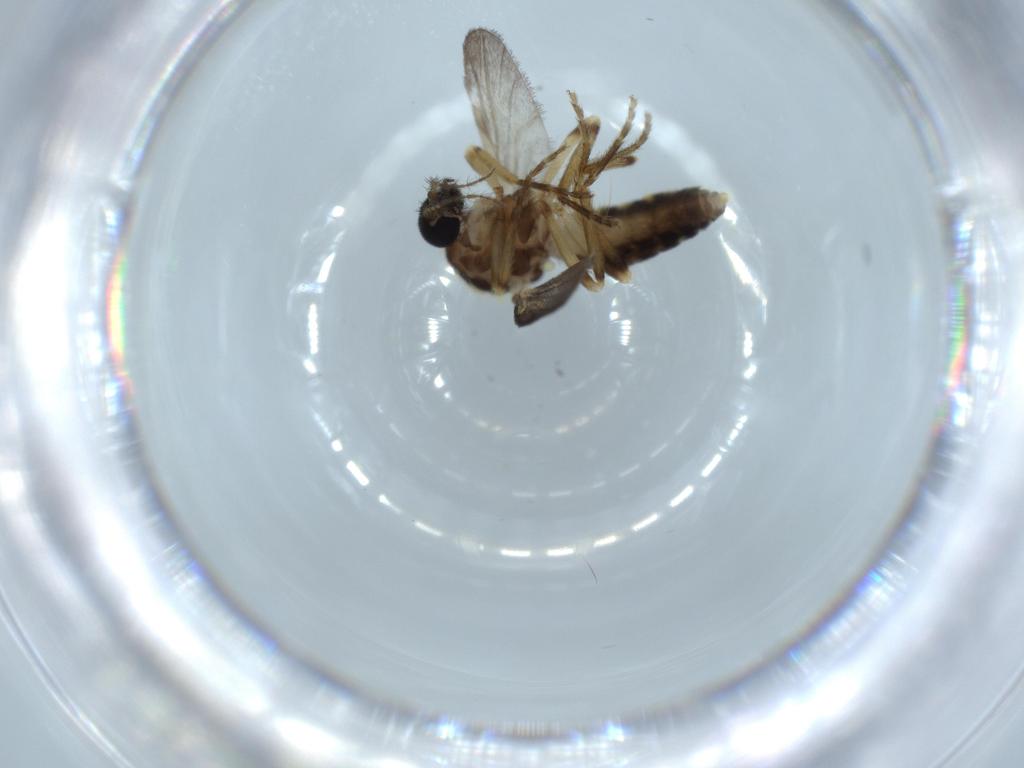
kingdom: Animalia
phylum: Arthropoda
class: Insecta
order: Diptera
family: Ceratopogonidae
